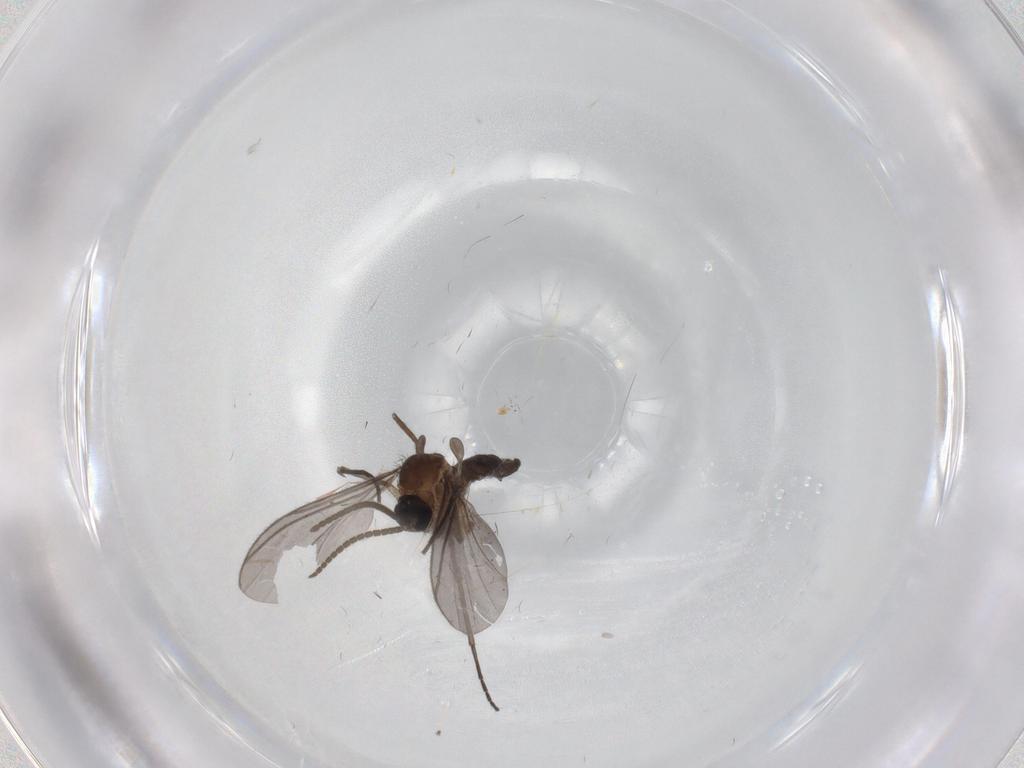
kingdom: Animalia
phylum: Arthropoda
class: Insecta
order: Diptera
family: Sciaridae
